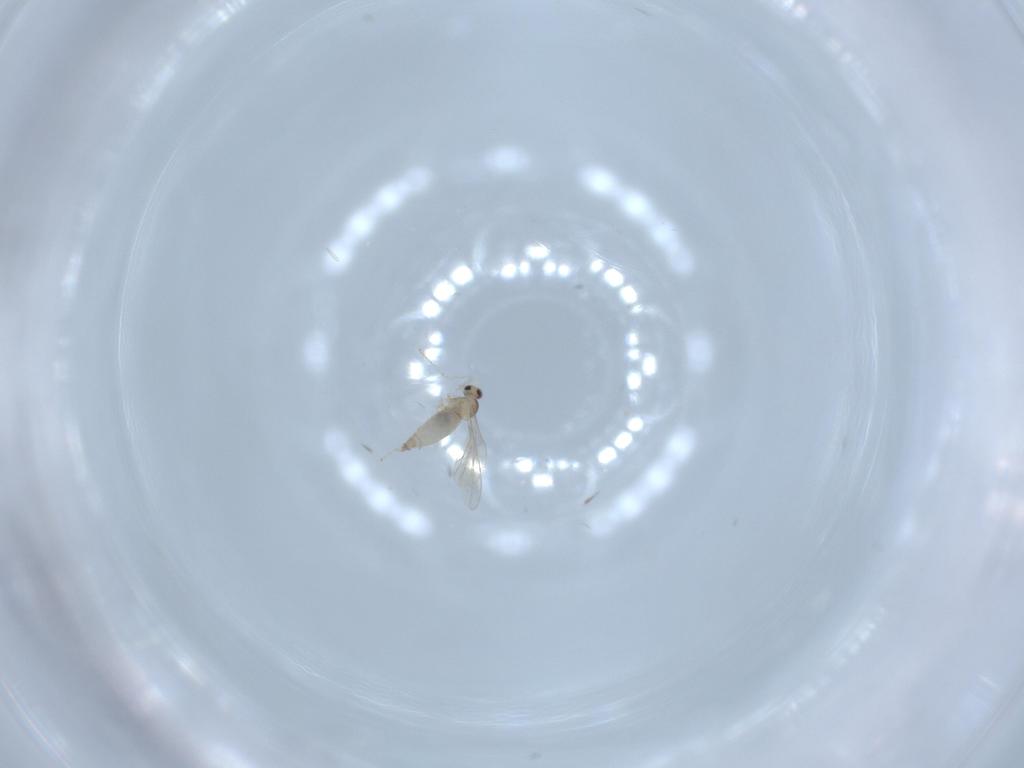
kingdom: Animalia
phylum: Arthropoda
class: Insecta
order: Diptera
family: Cecidomyiidae
